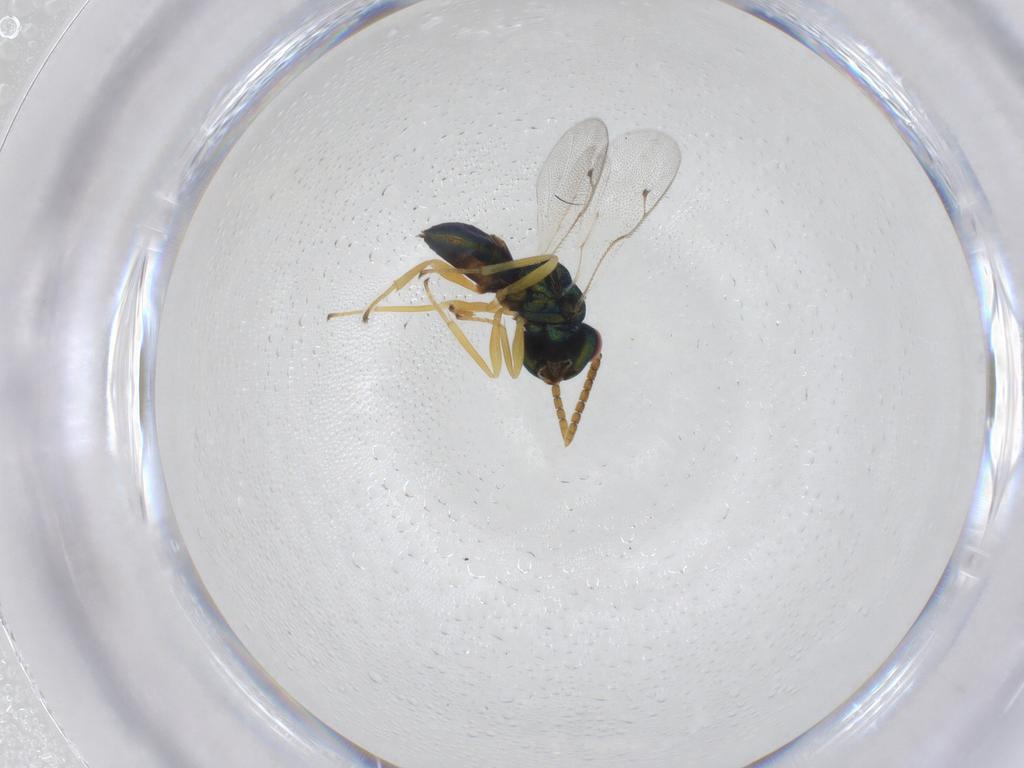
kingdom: Animalia
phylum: Arthropoda
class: Insecta
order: Hymenoptera
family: Pteromalidae
